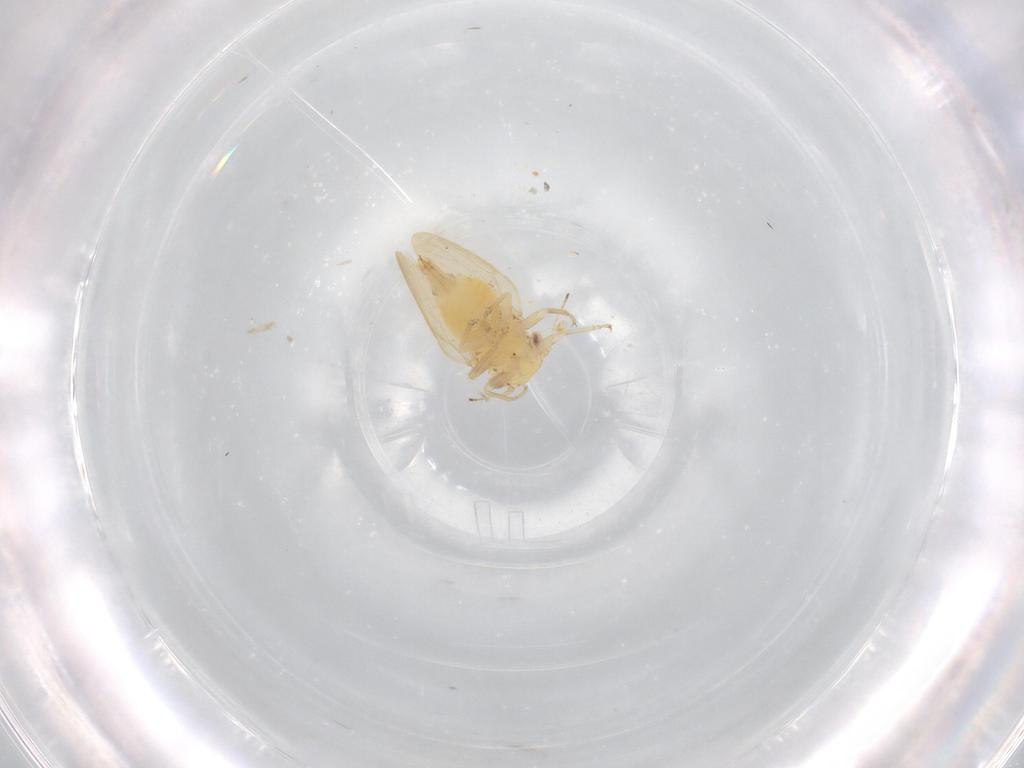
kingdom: Animalia
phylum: Arthropoda
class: Insecta
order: Hemiptera
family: Liviidae
